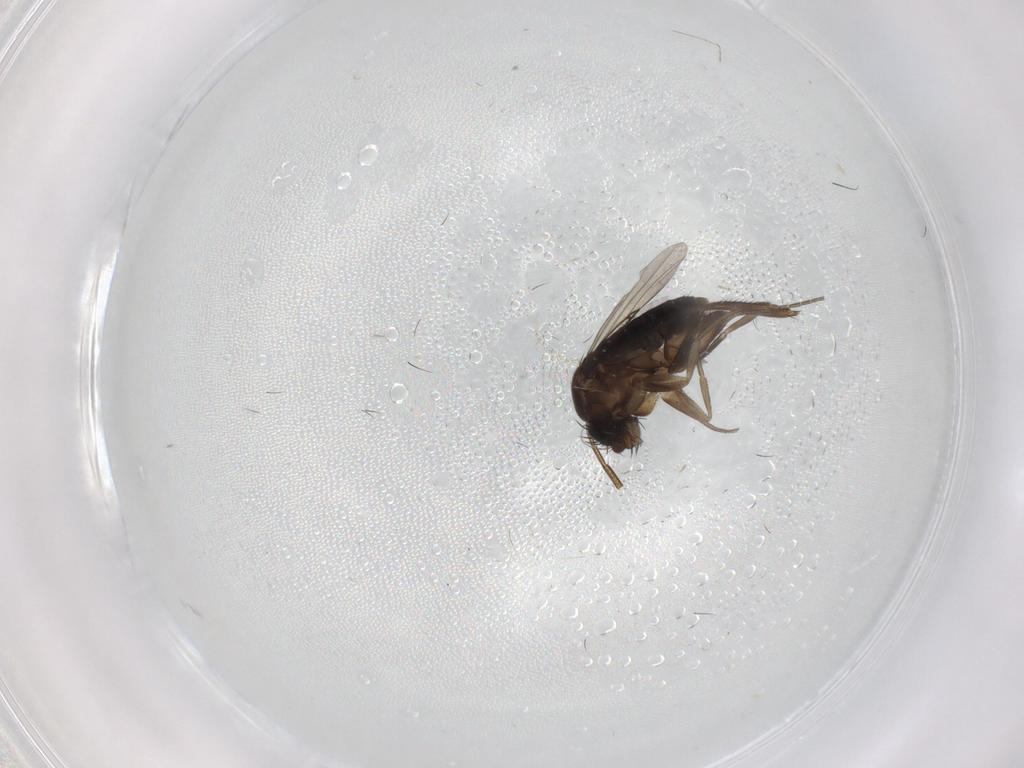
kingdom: Animalia
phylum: Arthropoda
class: Insecta
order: Diptera
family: Phoridae
